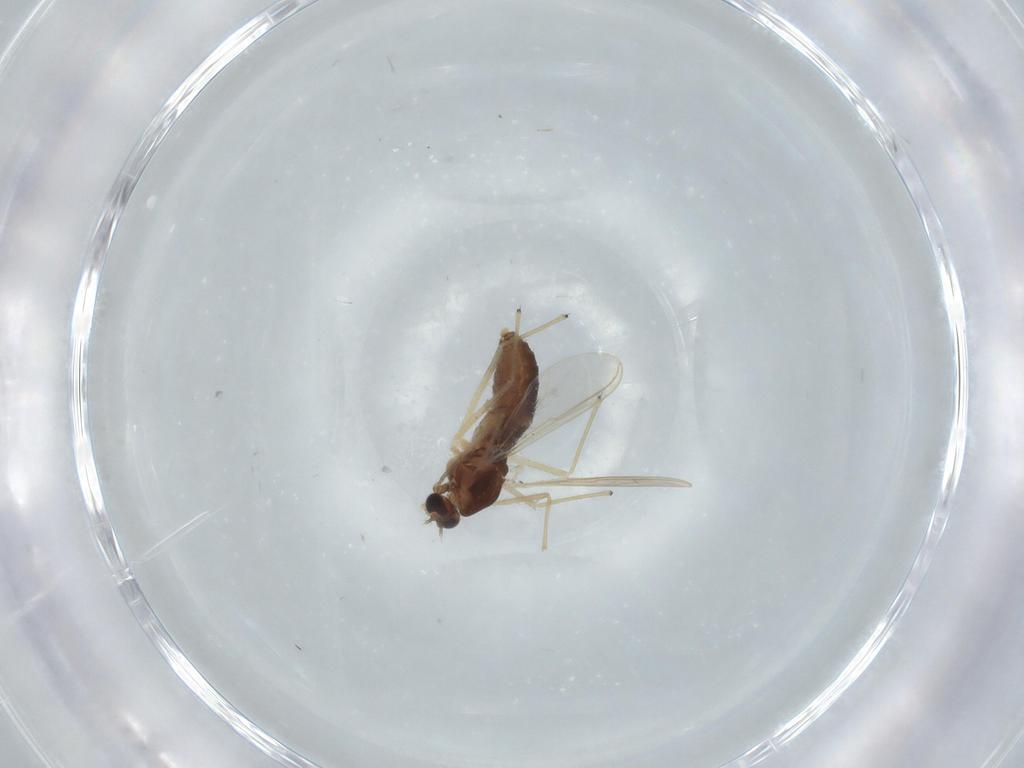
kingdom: Animalia
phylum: Arthropoda
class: Insecta
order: Diptera
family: Chironomidae
